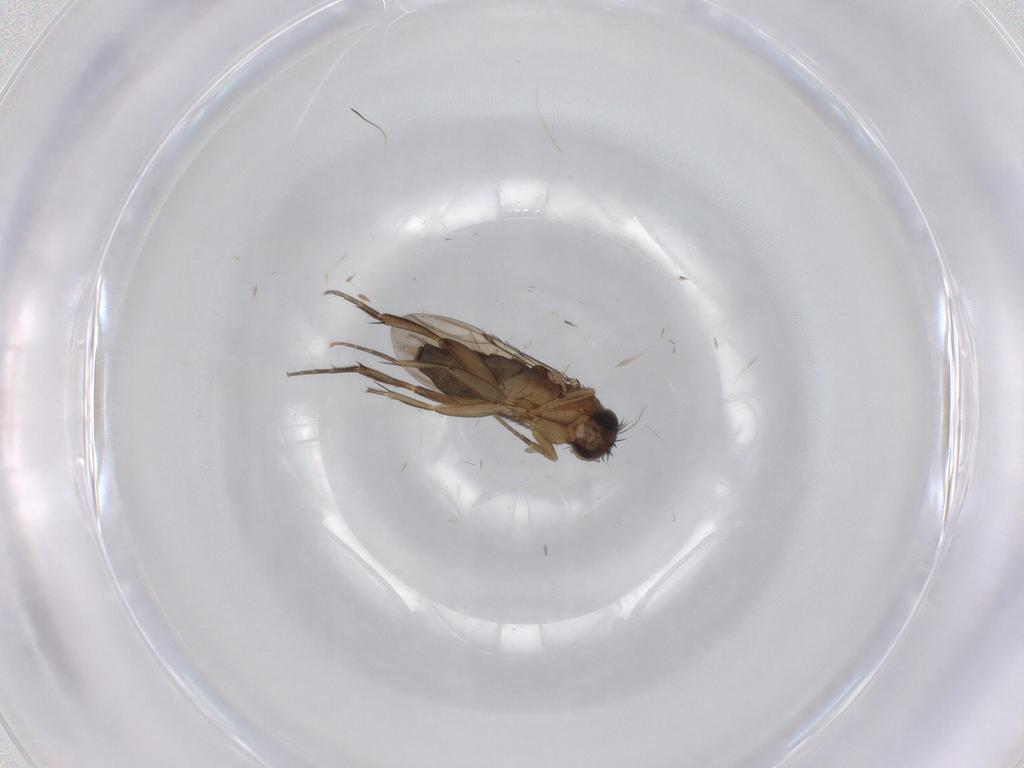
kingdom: Animalia
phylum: Arthropoda
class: Insecta
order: Diptera
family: Phoridae
